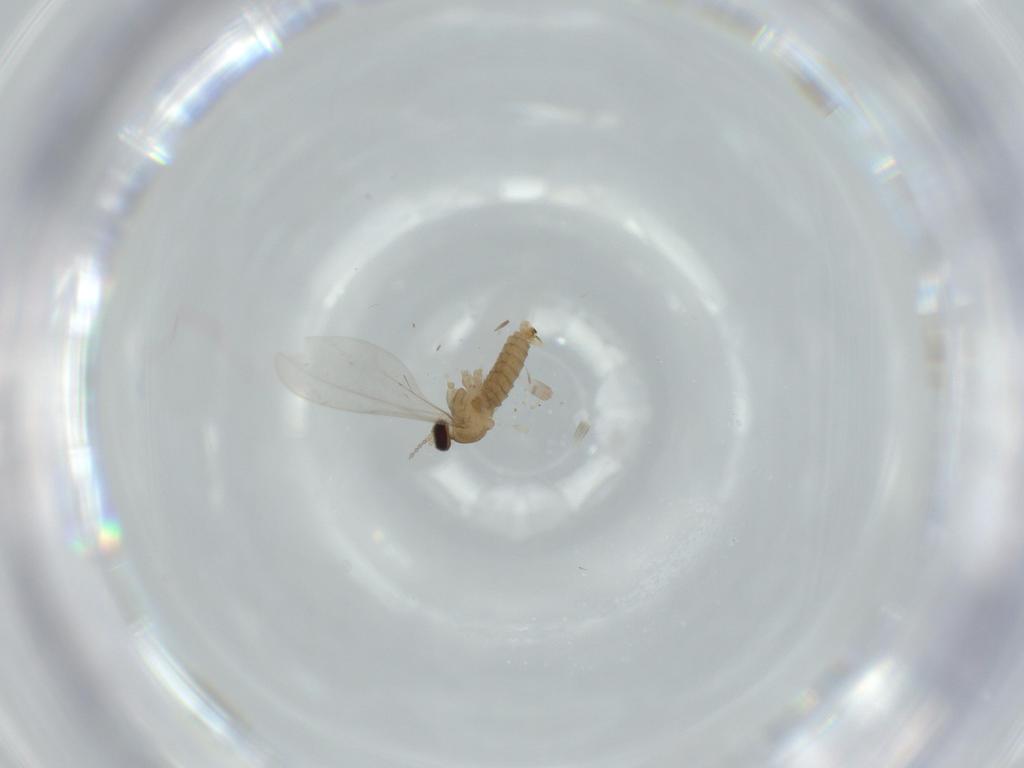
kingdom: Animalia
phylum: Arthropoda
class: Insecta
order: Diptera
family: Cecidomyiidae
